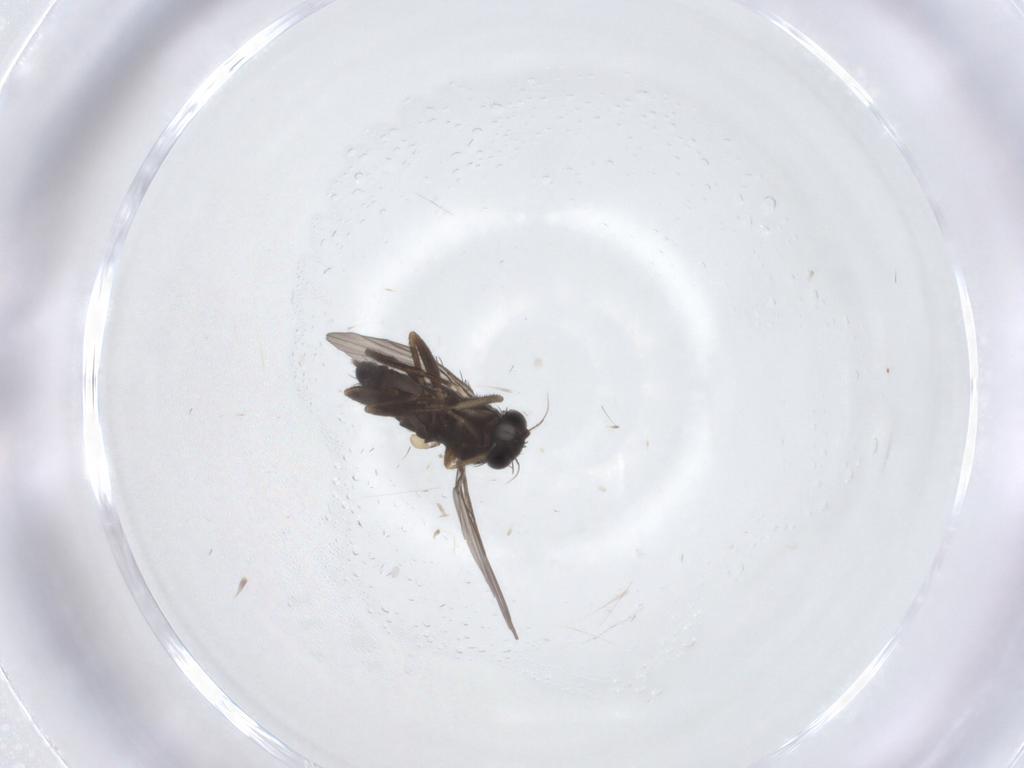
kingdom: Animalia
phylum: Arthropoda
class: Insecta
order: Diptera
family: Phoridae
